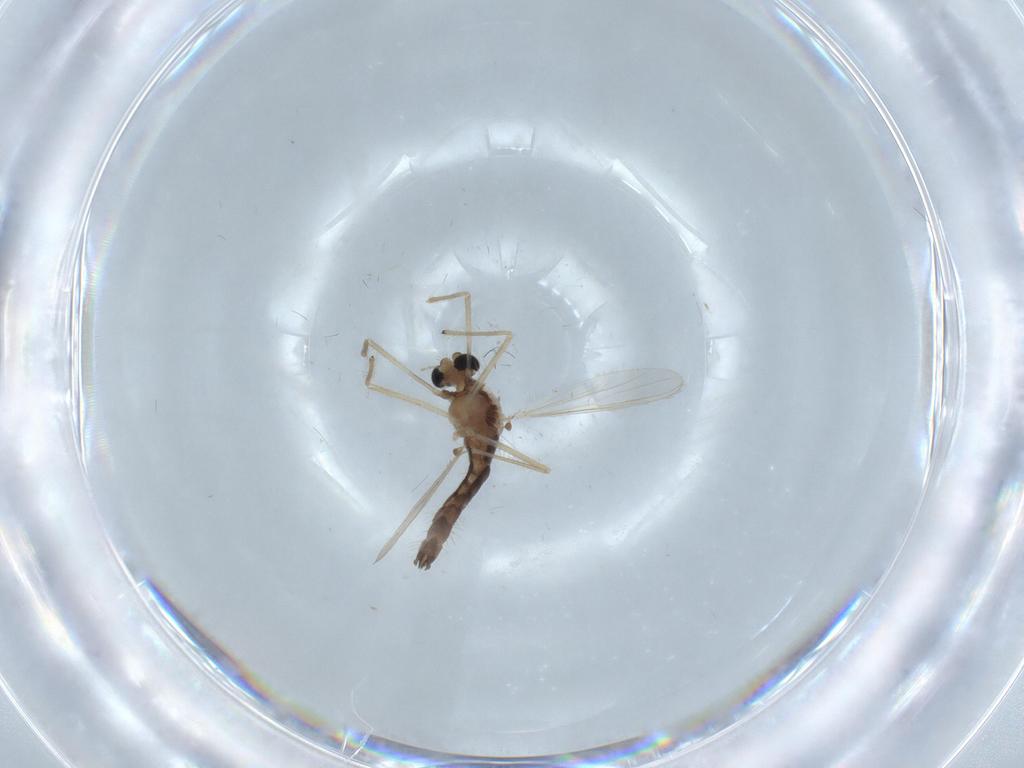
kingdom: Animalia
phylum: Arthropoda
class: Insecta
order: Diptera
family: Chironomidae
